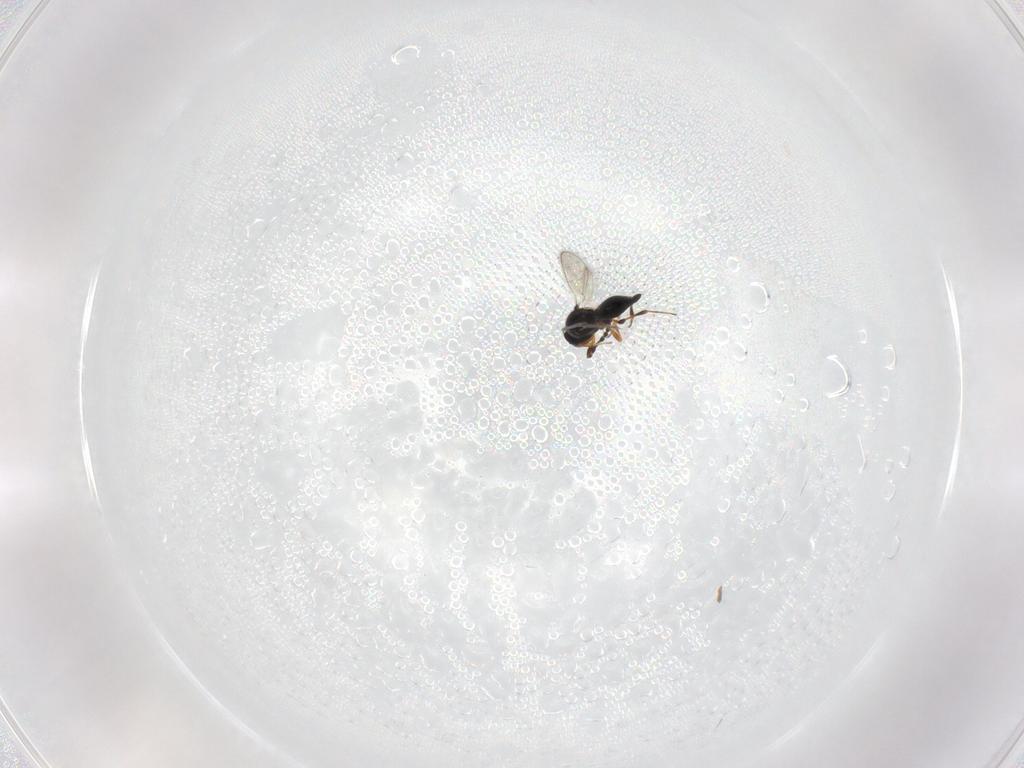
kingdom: Animalia
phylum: Arthropoda
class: Insecta
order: Hymenoptera
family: Platygastridae
